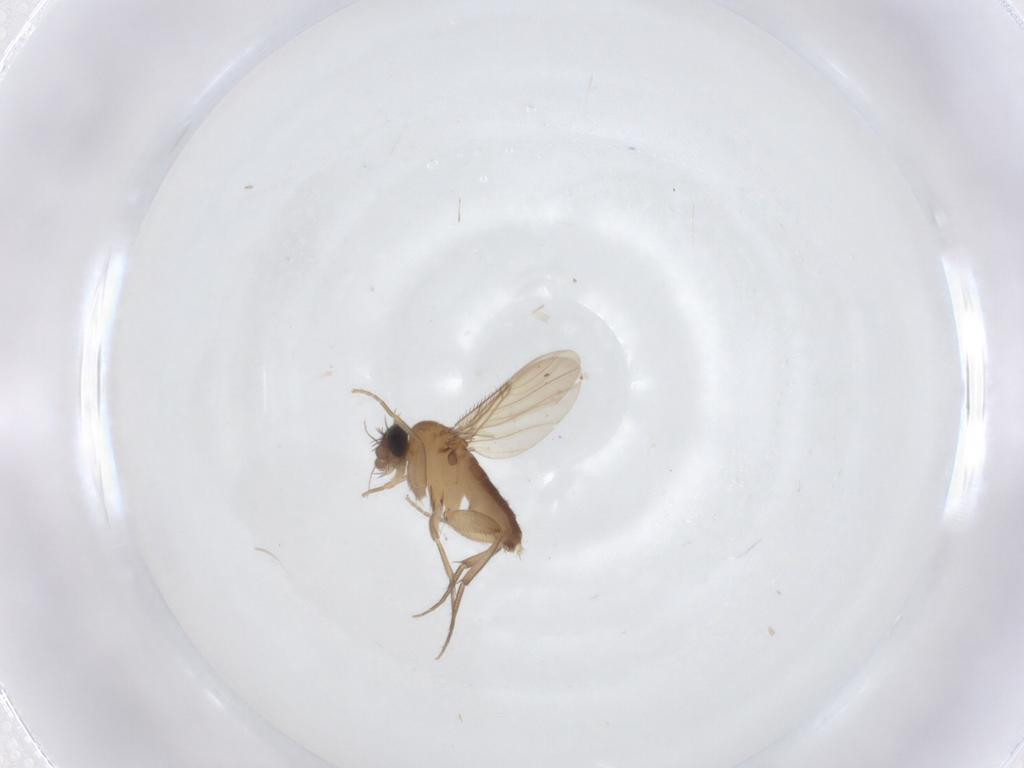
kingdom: Animalia
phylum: Arthropoda
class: Insecta
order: Diptera
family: Phoridae
